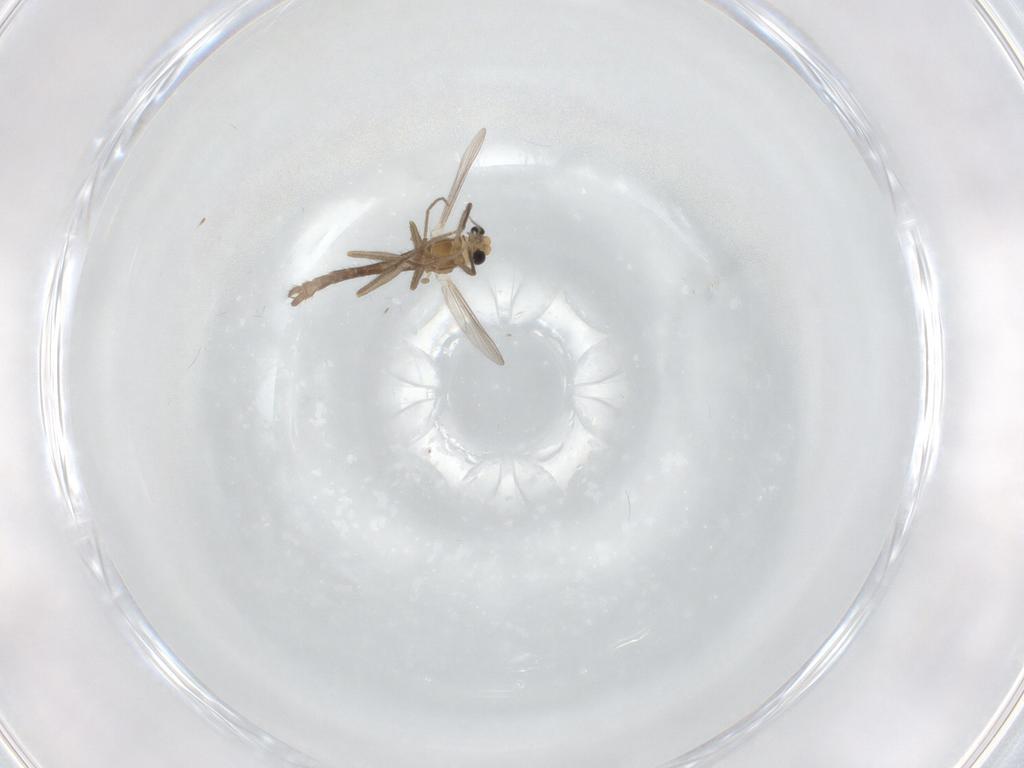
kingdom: Animalia
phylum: Arthropoda
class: Insecta
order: Diptera
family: Chironomidae
